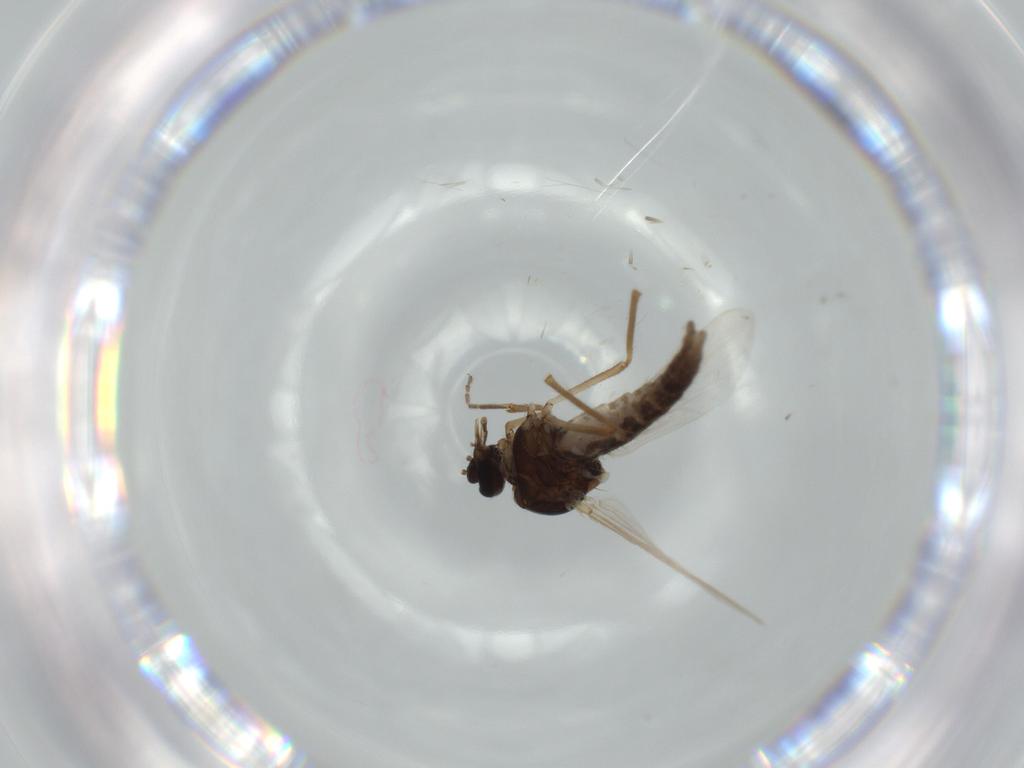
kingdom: Animalia
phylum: Arthropoda
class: Insecta
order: Diptera
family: Ceratopogonidae
